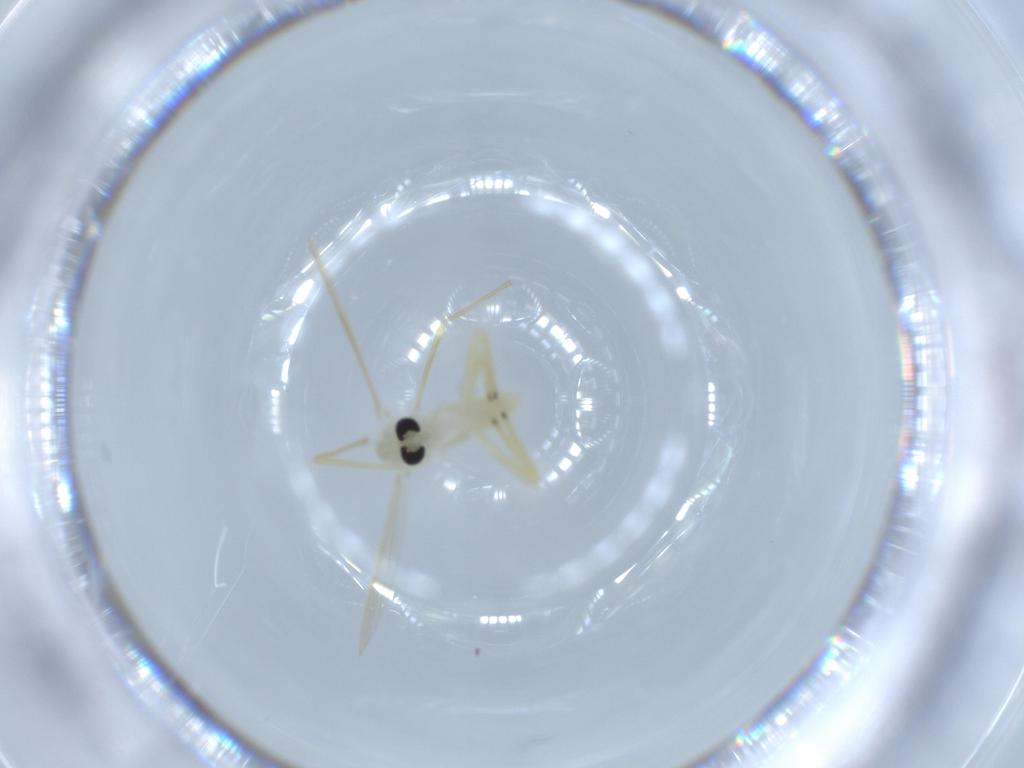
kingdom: Animalia
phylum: Arthropoda
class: Insecta
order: Diptera
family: Chironomidae
